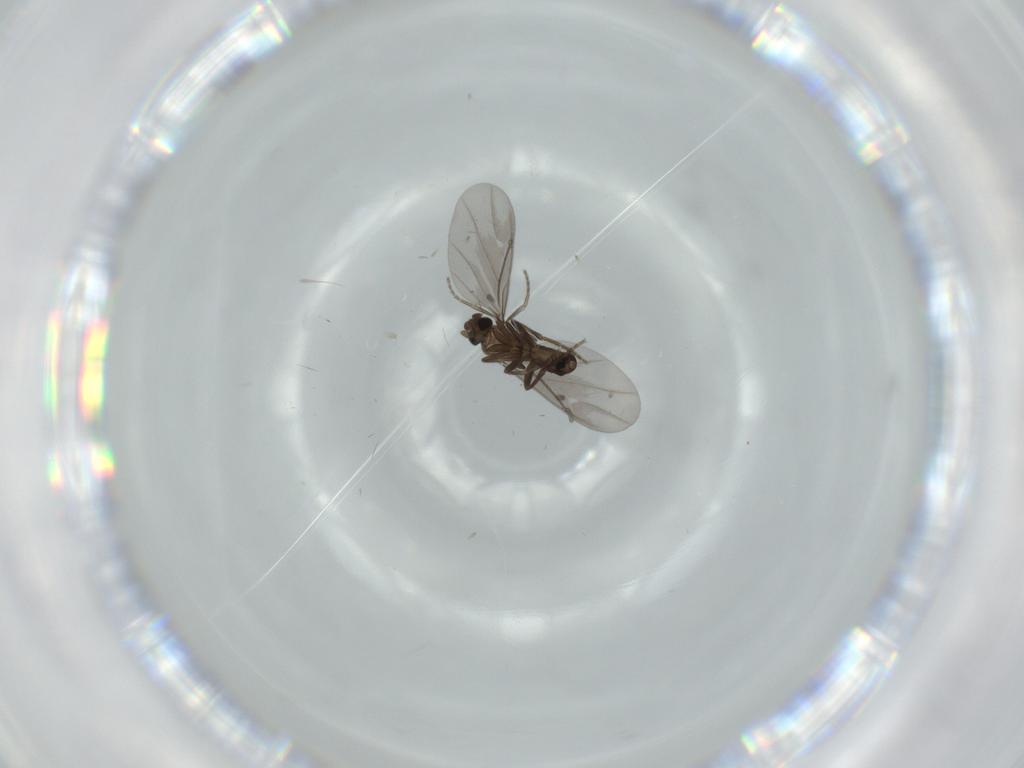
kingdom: Animalia
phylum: Arthropoda
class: Insecta
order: Diptera
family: Phoridae
